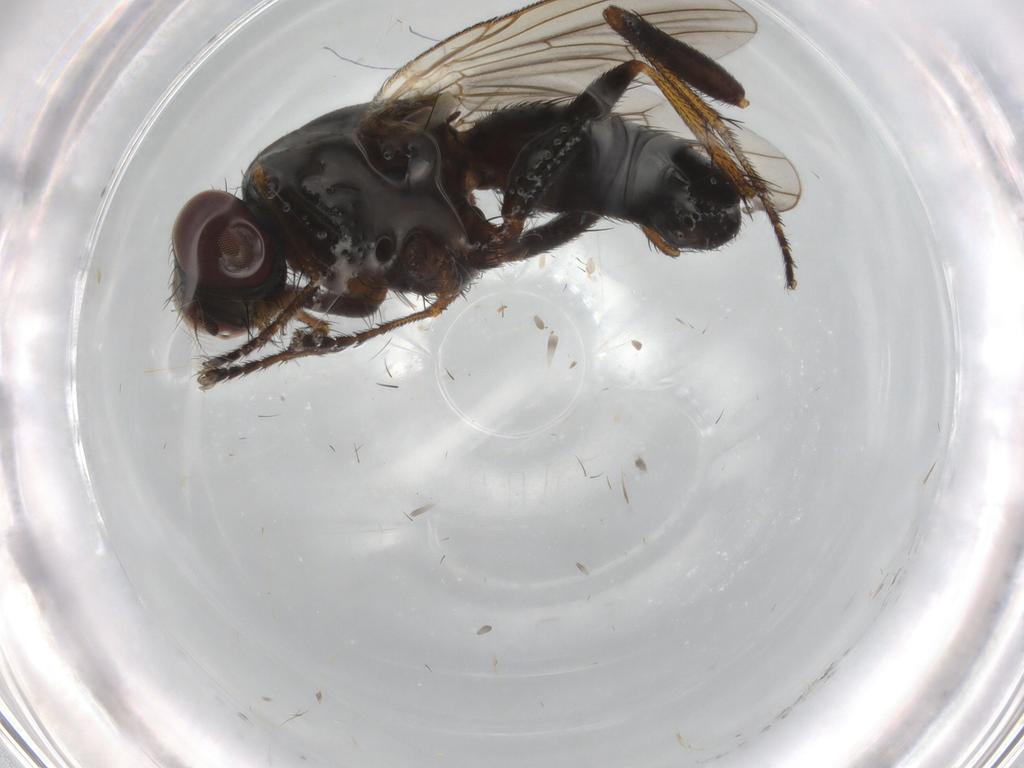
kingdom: Animalia
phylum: Arthropoda
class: Insecta
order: Diptera
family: Muscidae
